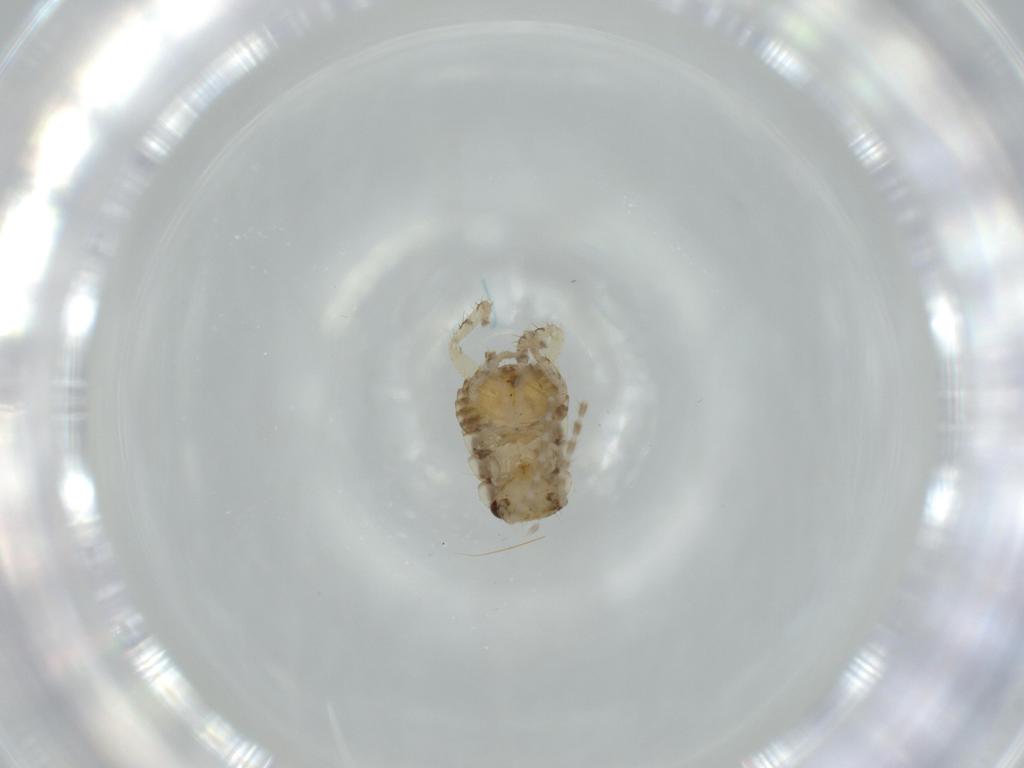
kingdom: Animalia
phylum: Arthropoda
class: Insecta
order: Blattodea
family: Ectobiidae
